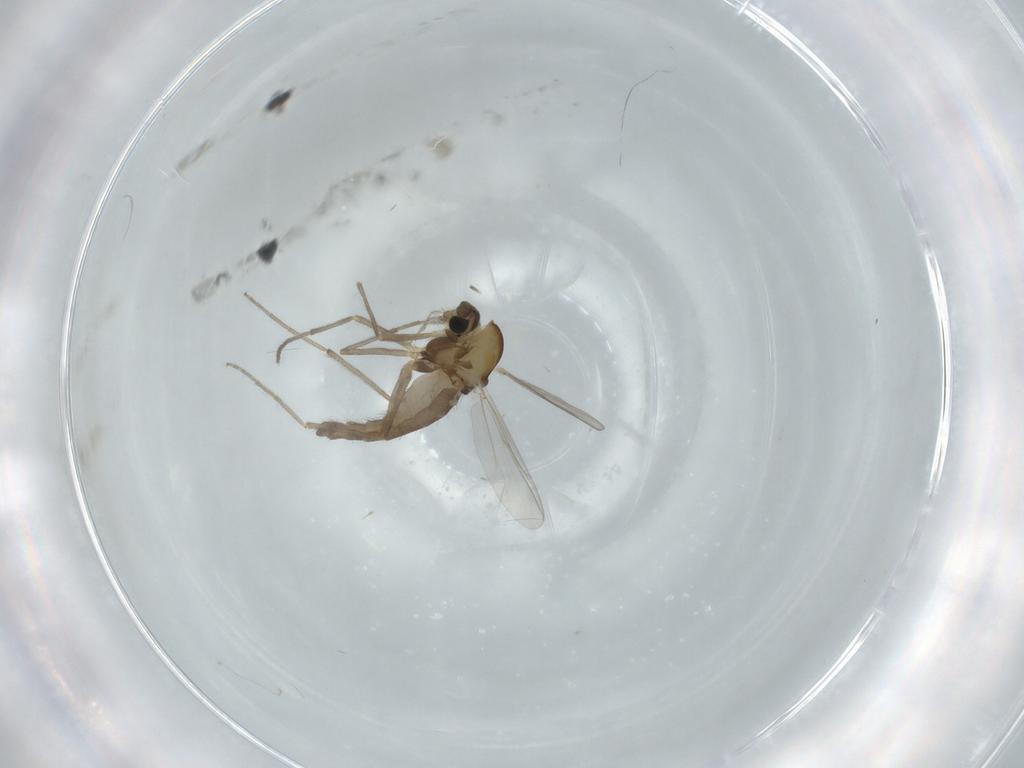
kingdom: Animalia
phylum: Arthropoda
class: Insecta
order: Diptera
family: Chironomidae
